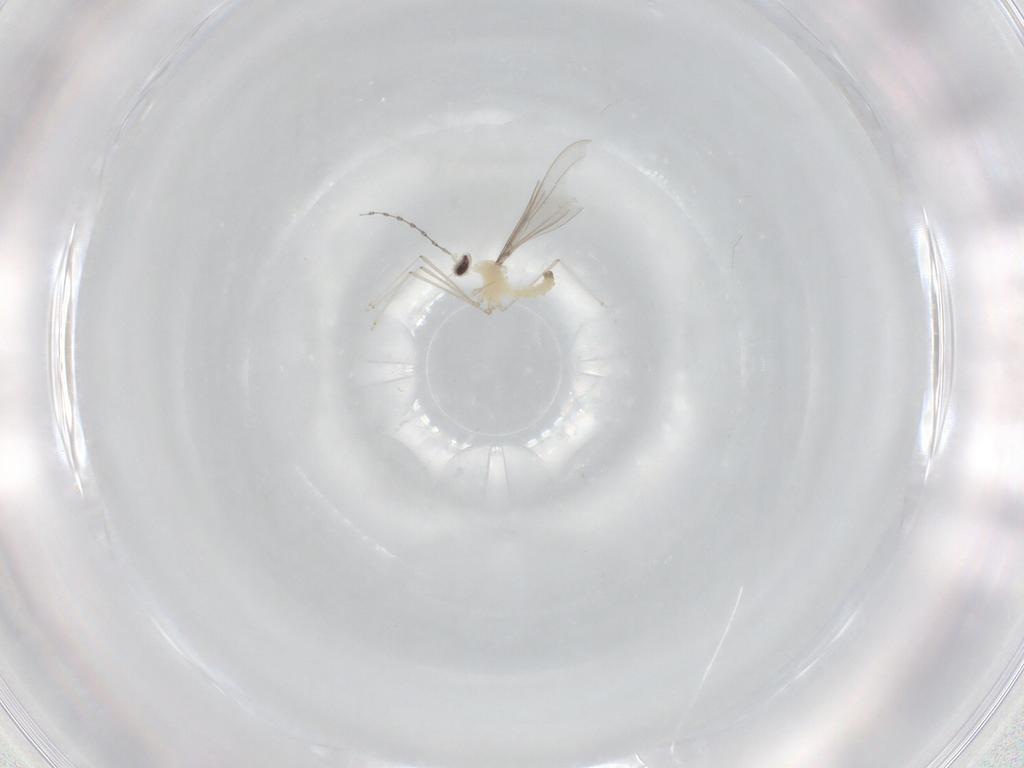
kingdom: Animalia
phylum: Arthropoda
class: Insecta
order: Diptera
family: Cecidomyiidae
